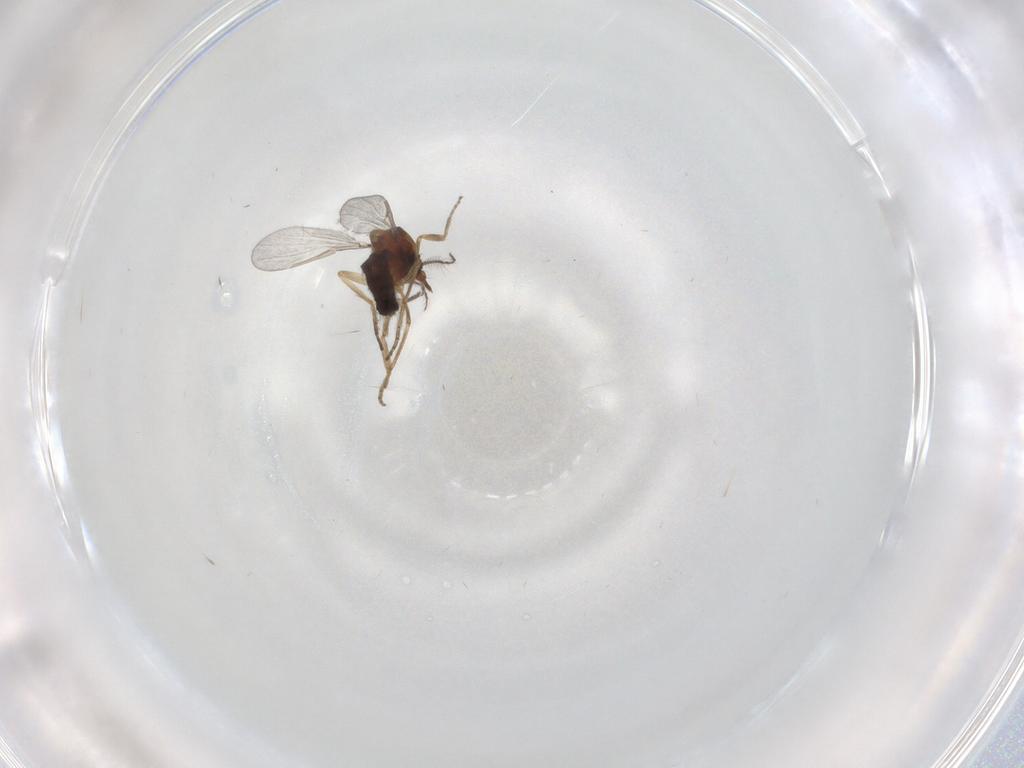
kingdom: Animalia
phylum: Arthropoda
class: Insecta
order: Diptera
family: Ceratopogonidae
